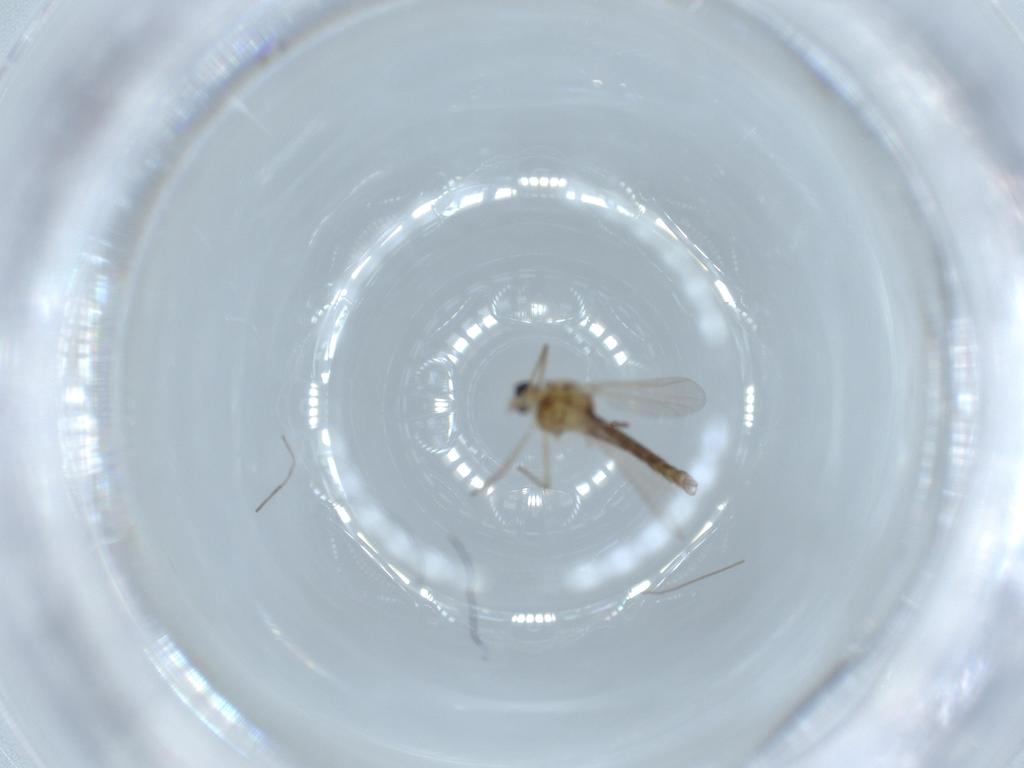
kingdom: Animalia
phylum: Arthropoda
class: Insecta
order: Diptera
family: Chironomidae
